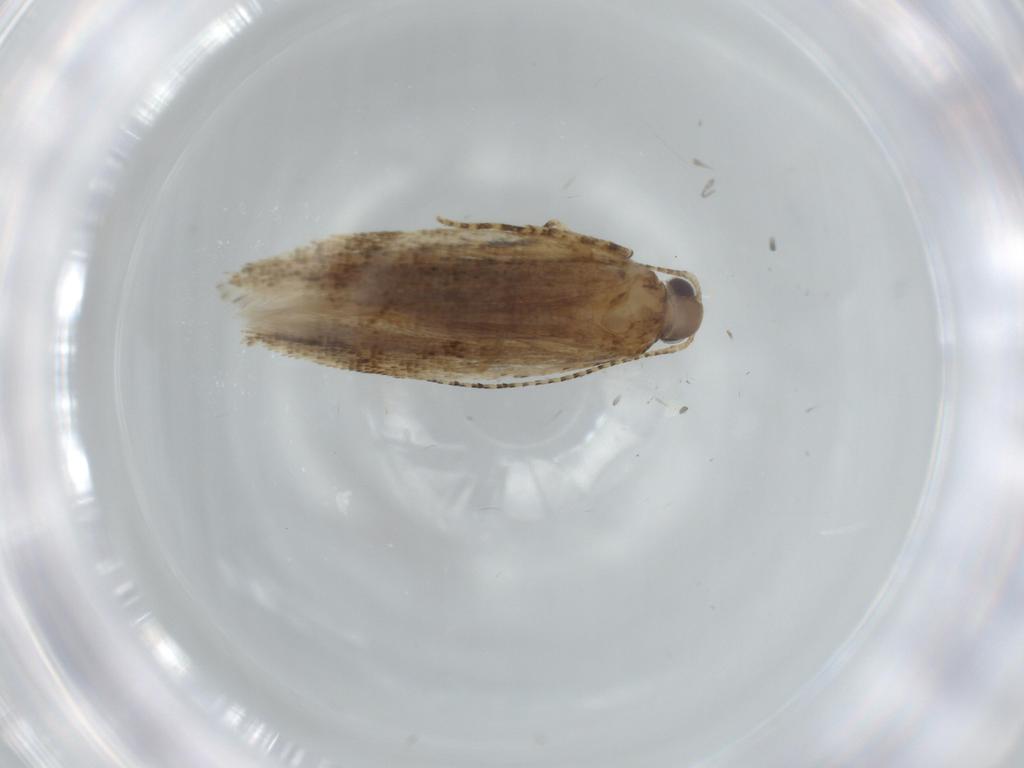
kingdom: Animalia
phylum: Arthropoda
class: Insecta
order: Lepidoptera
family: Gelechiidae
